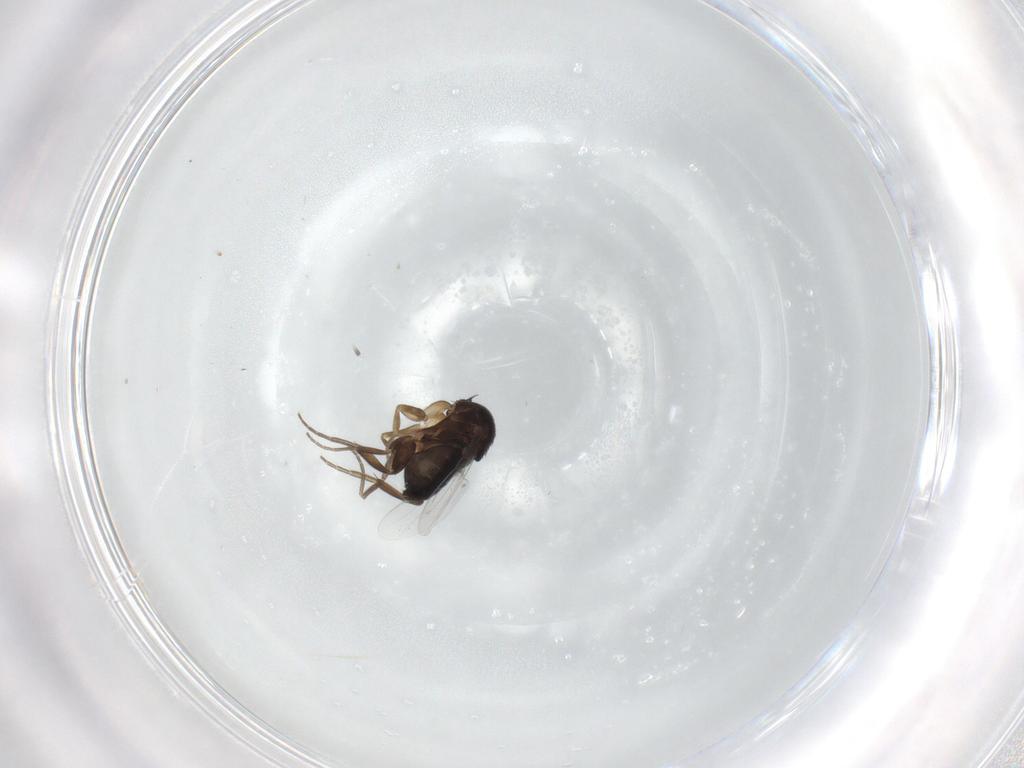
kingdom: Animalia
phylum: Arthropoda
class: Insecta
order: Diptera
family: Phoridae
